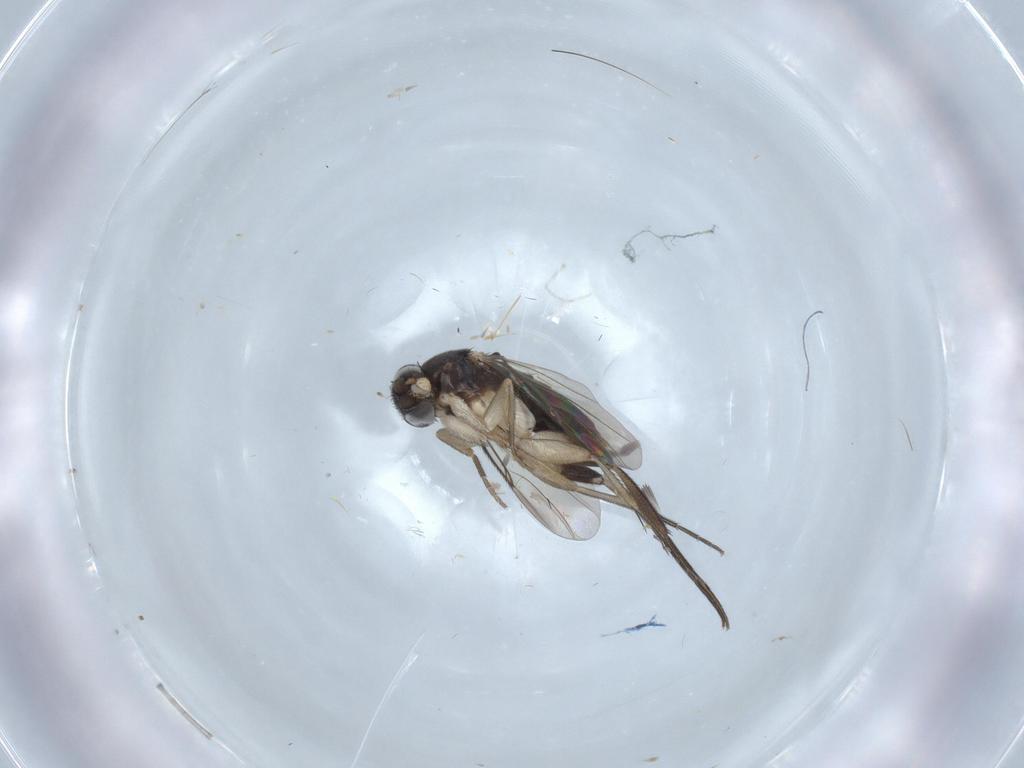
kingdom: Animalia
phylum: Arthropoda
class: Insecta
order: Diptera
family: Phoridae
